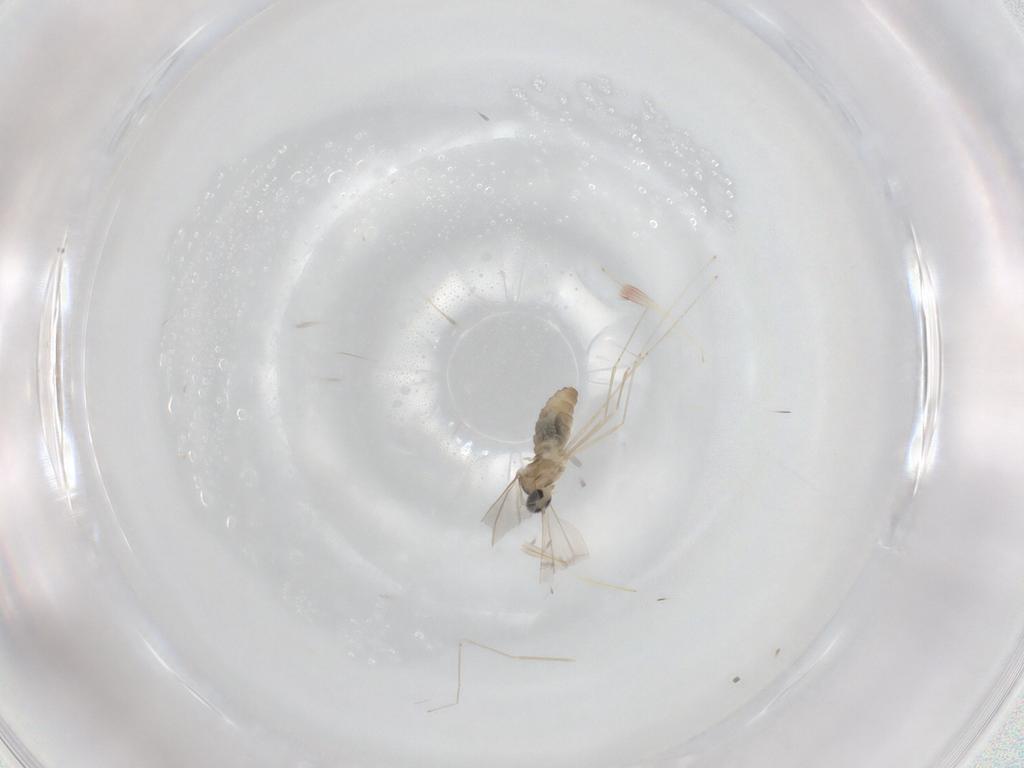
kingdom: Animalia
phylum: Arthropoda
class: Insecta
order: Diptera
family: Cecidomyiidae
